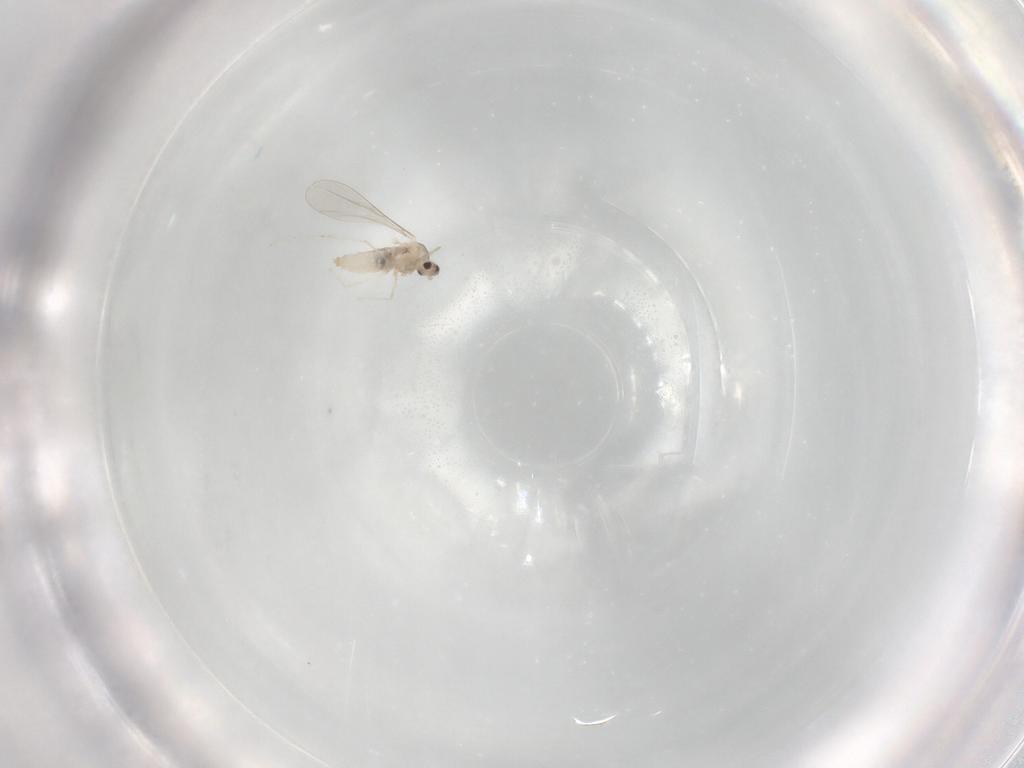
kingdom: Animalia
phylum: Arthropoda
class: Insecta
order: Diptera
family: Cecidomyiidae
